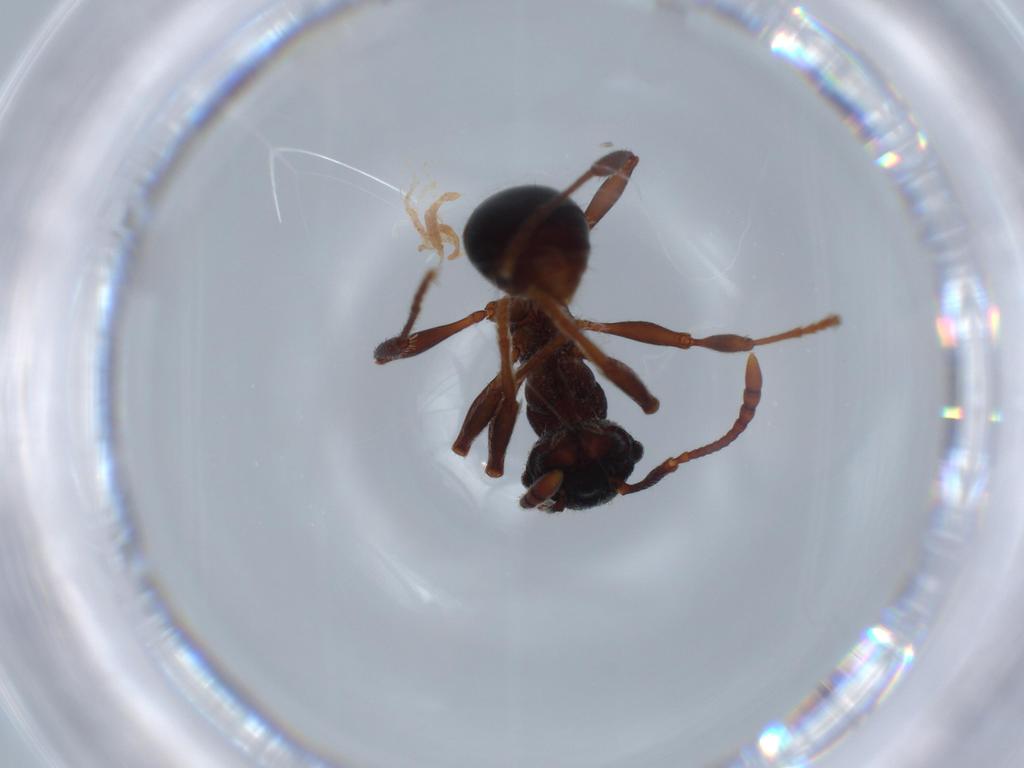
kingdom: Animalia
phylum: Arthropoda
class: Insecta
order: Hymenoptera
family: Formicidae
